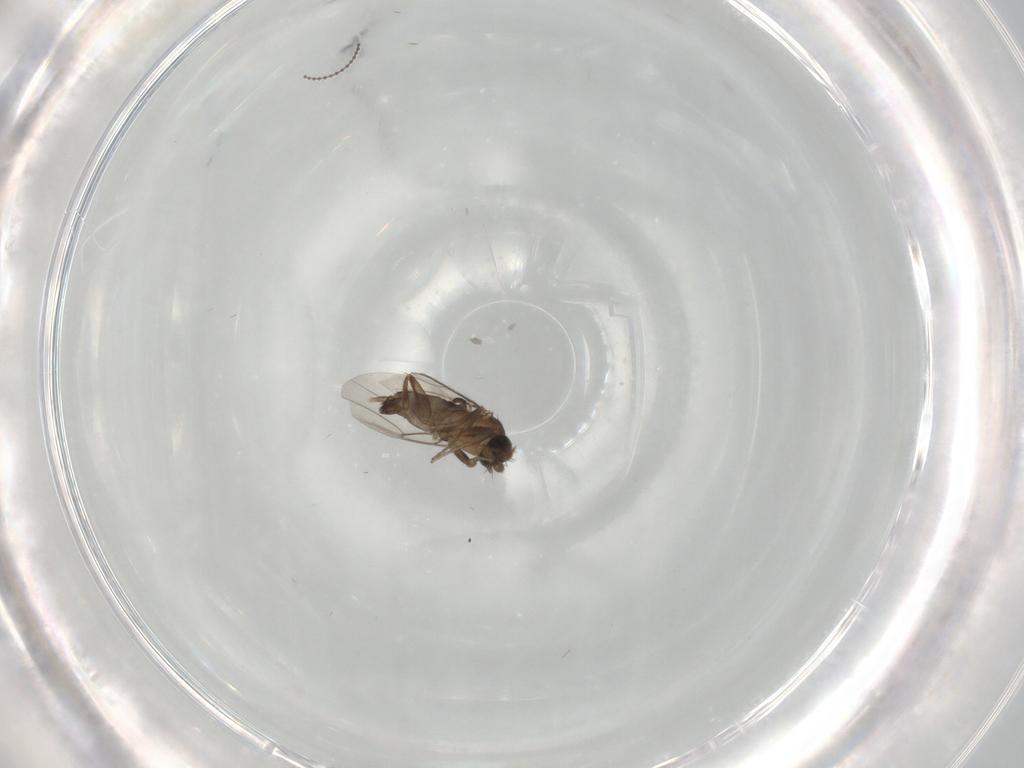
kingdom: Animalia
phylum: Arthropoda
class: Insecta
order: Diptera
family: Phoridae
